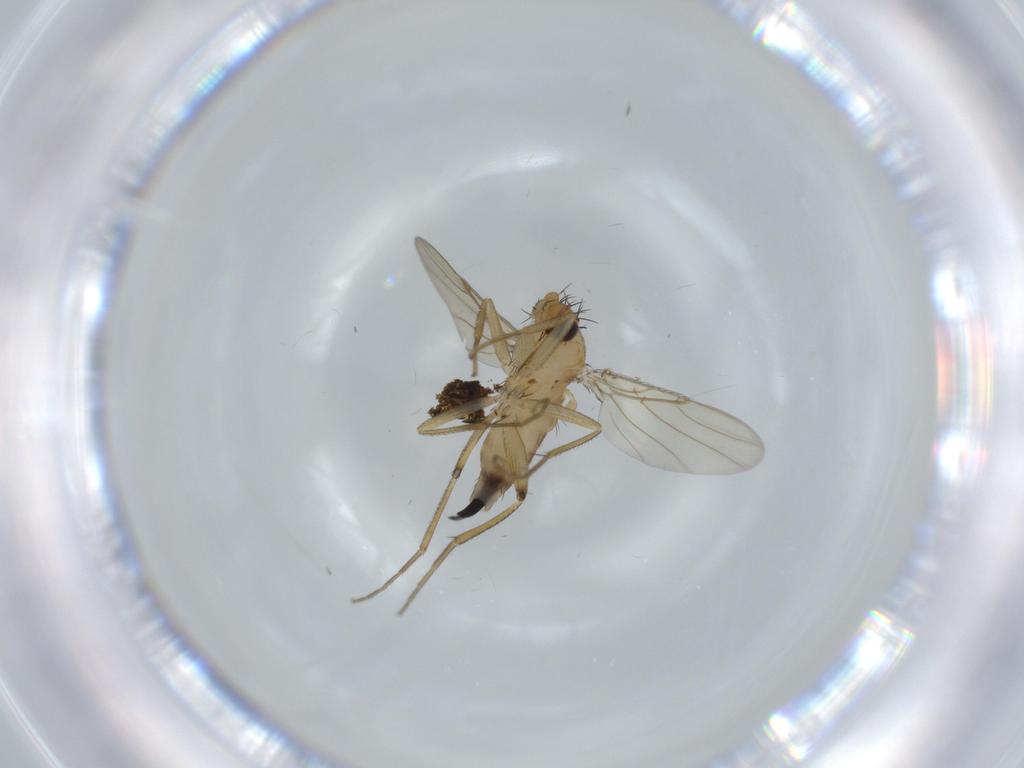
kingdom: Animalia
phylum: Arthropoda
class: Insecta
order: Diptera
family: Phoridae
